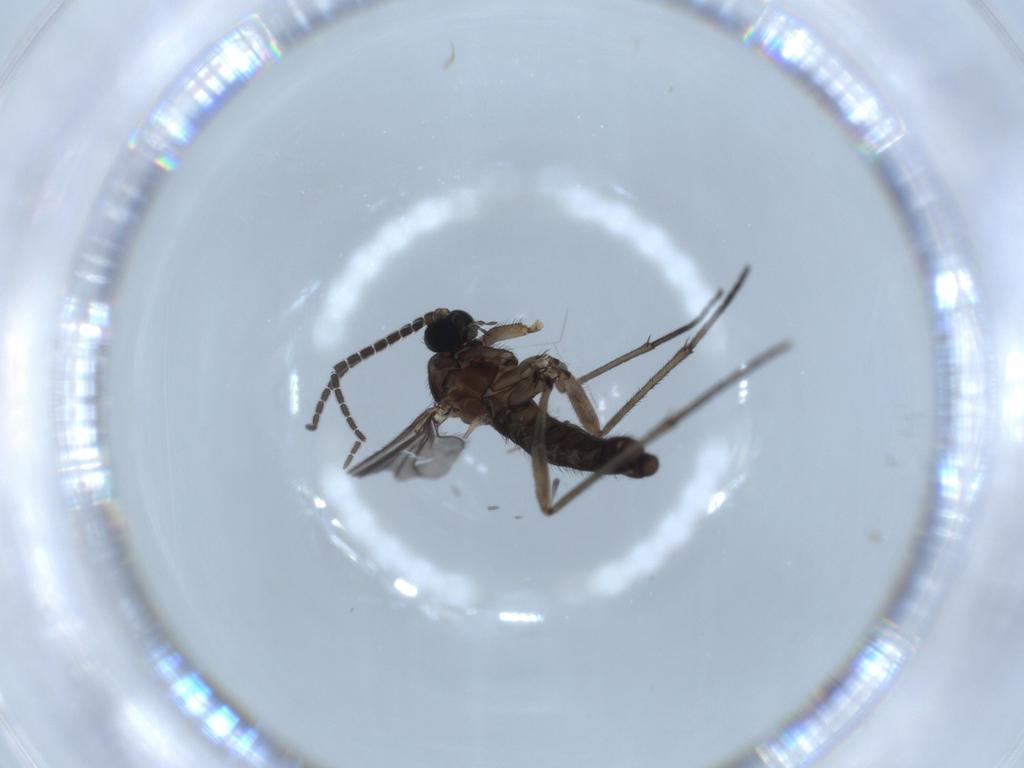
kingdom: Animalia
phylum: Arthropoda
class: Insecta
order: Diptera
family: Sciaridae
